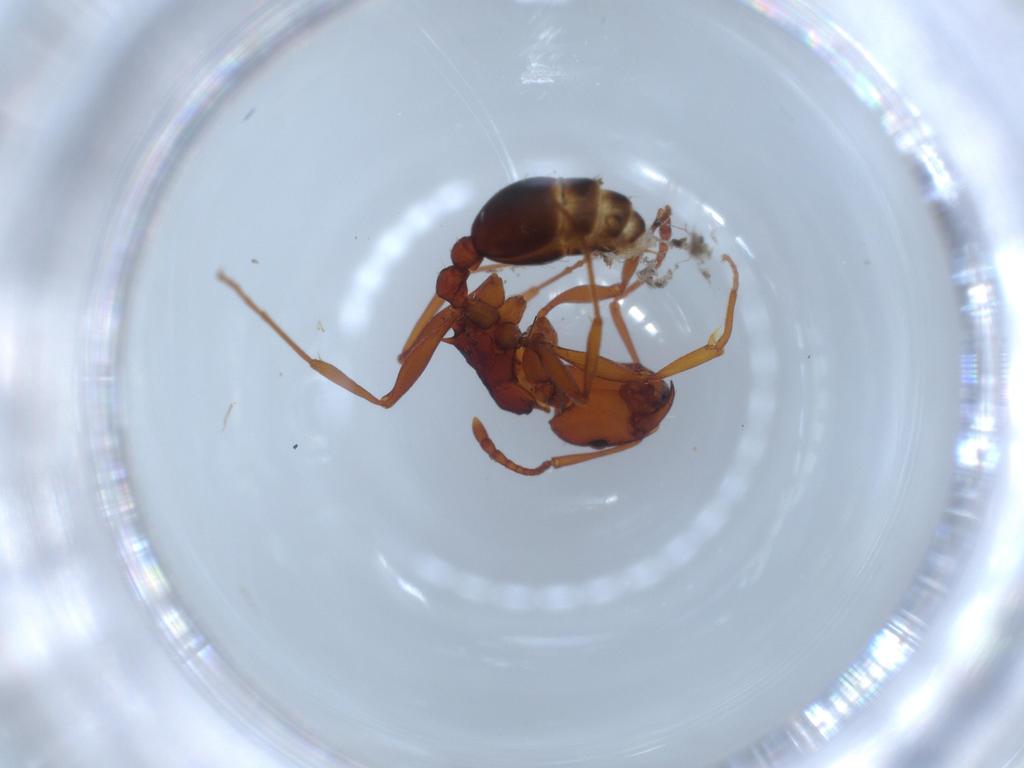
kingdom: Animalia
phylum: Arthropoda
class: Insecta
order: Hymenoptera
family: Formicidae
